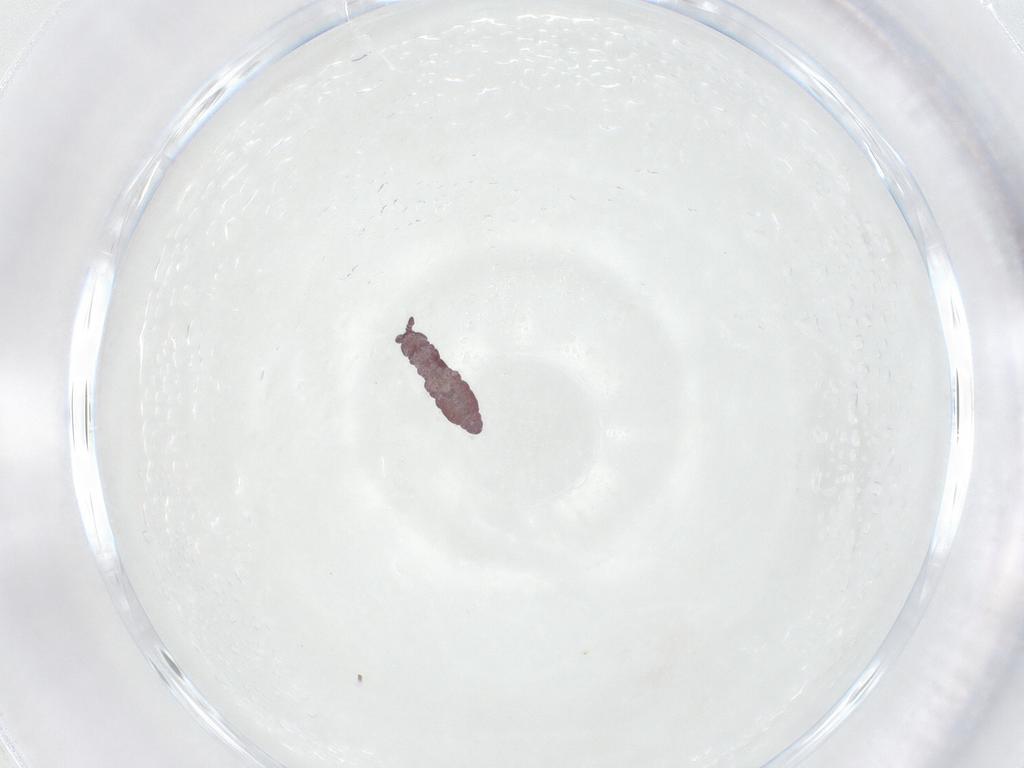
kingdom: Animalia
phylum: Arthropoda
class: Collembola
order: Poduromorpha
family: Hypogastruridae
